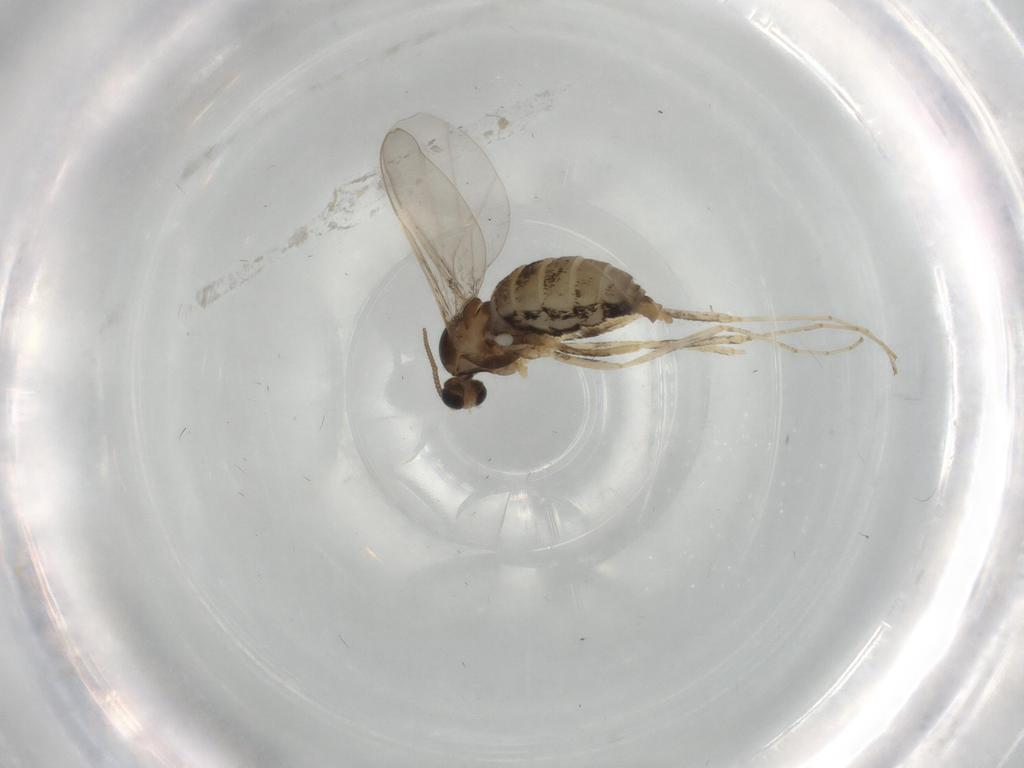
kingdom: Animalia
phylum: Arthropoda
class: Insecta
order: Diptera
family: Cecidomyiidae
